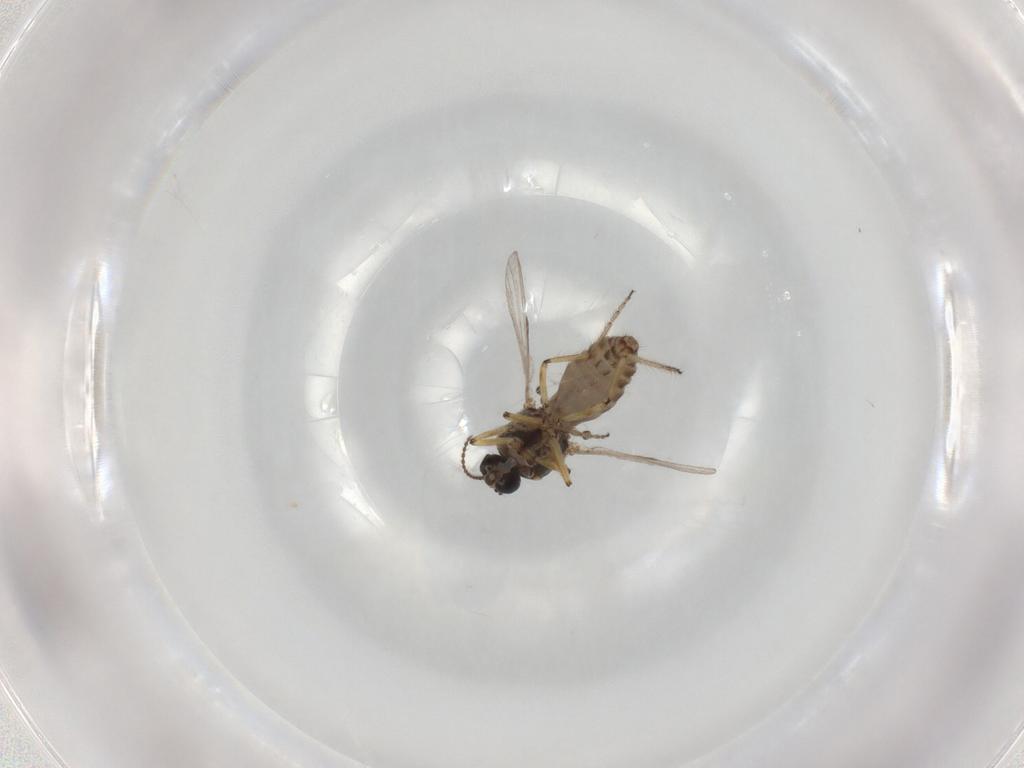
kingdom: Animalia
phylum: Arthropoda
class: Insecta
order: Diptera
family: Ceratopogonidae
